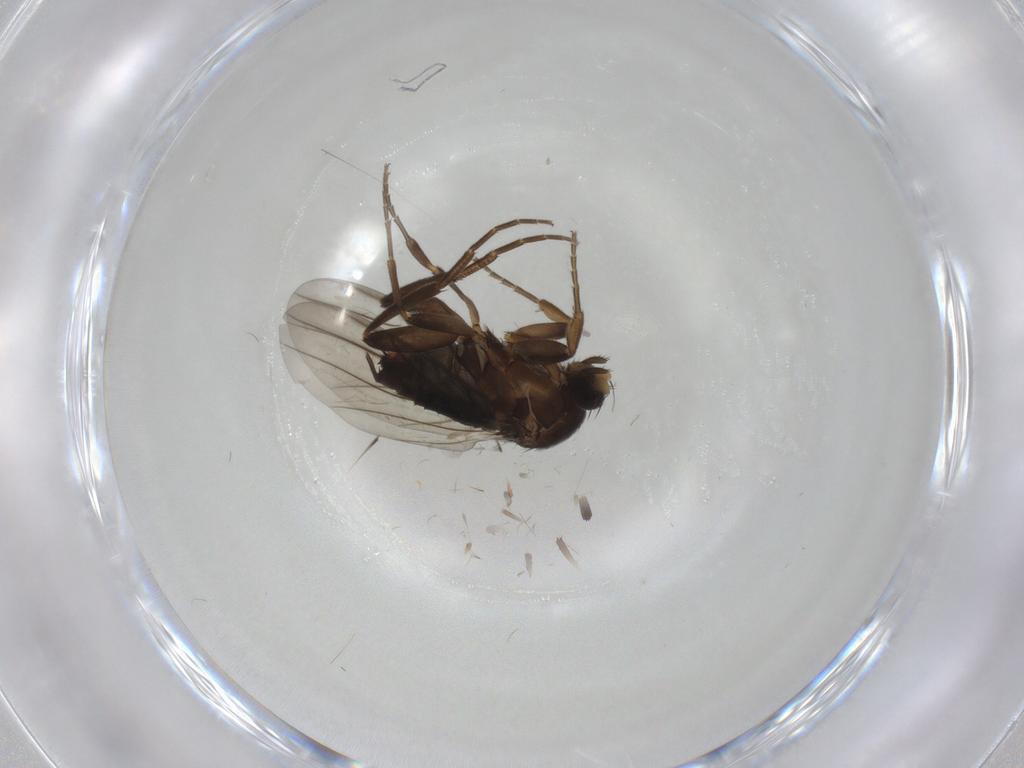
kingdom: Animalia
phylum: Arthropoda
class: Insecta
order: Diptera
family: Chironomidae
